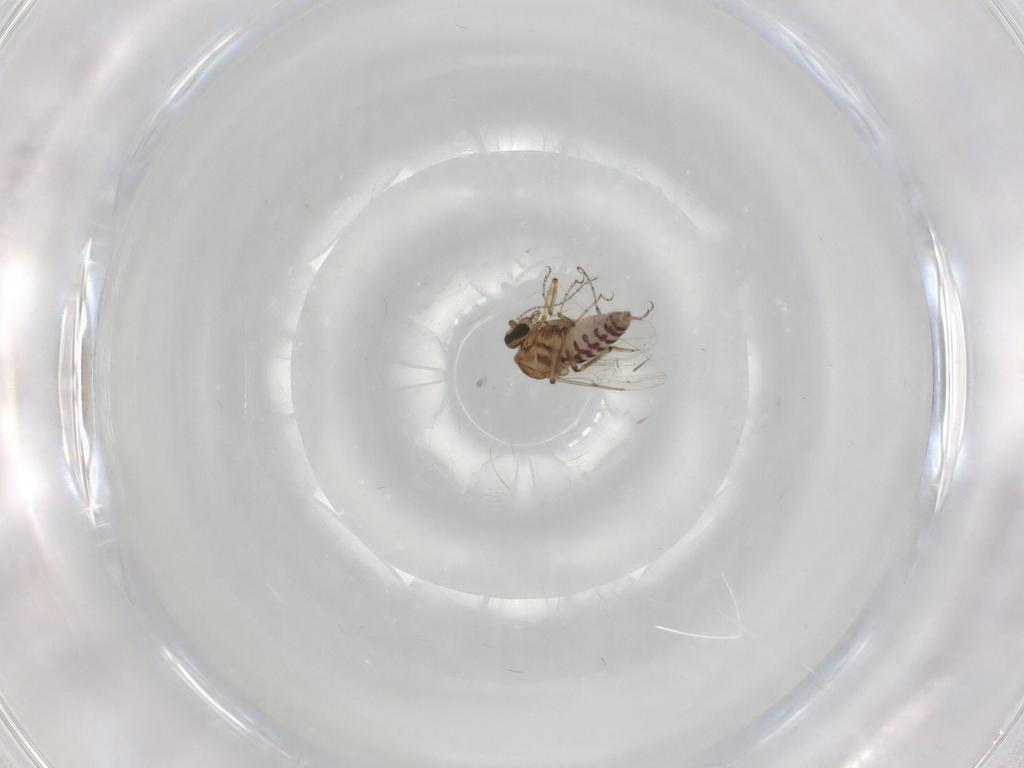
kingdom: Animalia
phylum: Arthropoda
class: Insecta
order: Diptera
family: Ceratopogonidae
